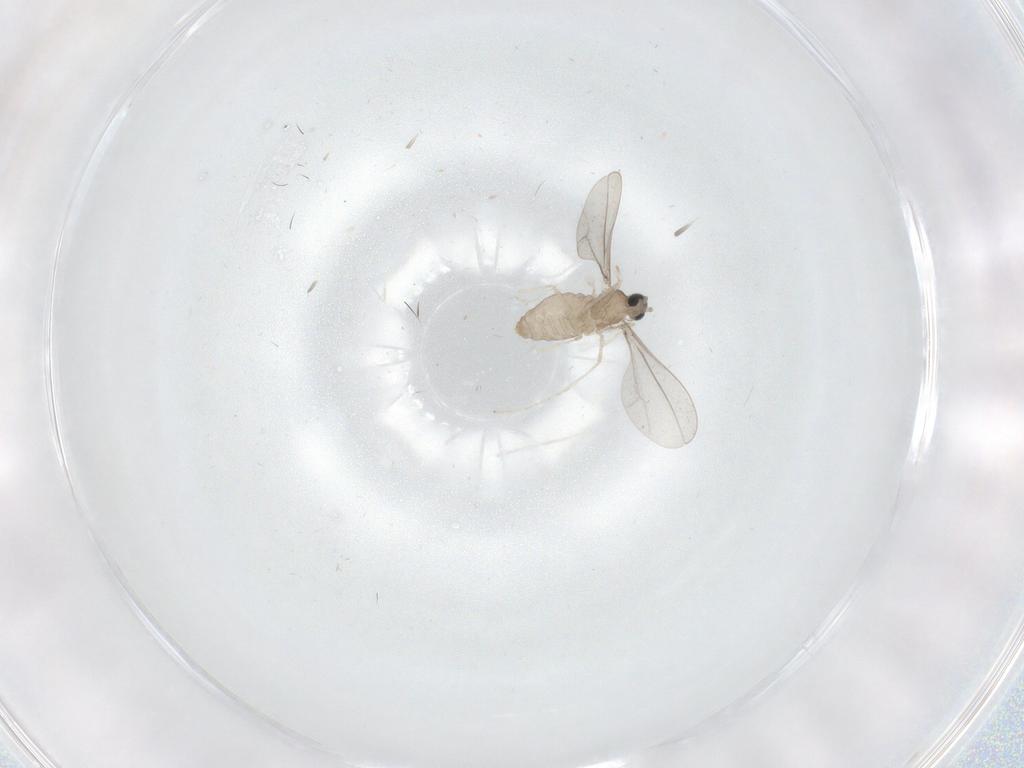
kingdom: Animalia
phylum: Arthropoda
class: Insecta
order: Diptera
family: Cecidomyiidae
